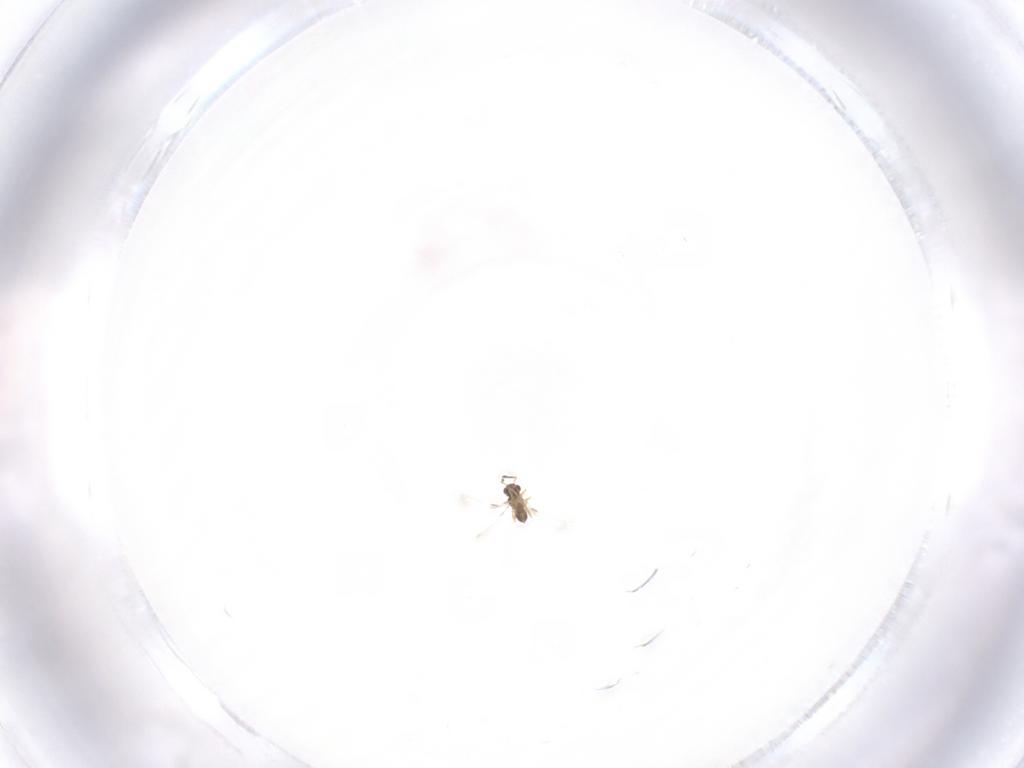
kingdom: Animalia
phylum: Arthropoda
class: Insecta
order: Hymenoptera
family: Mymaridae
